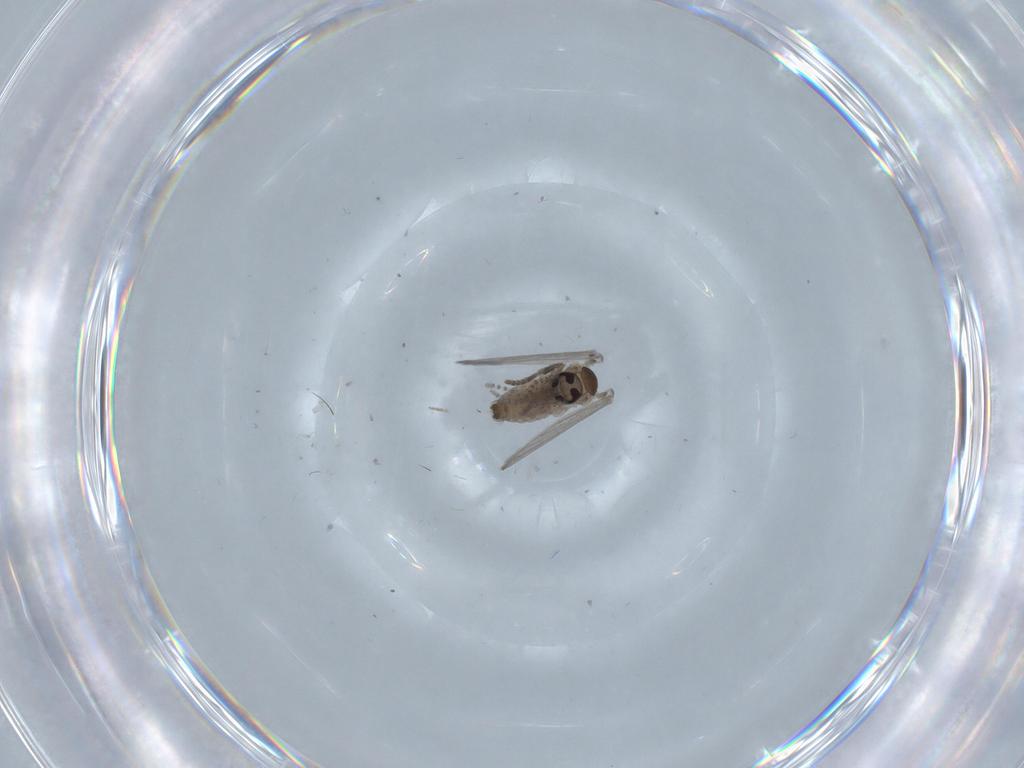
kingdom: Animalia
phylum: Arthropoda
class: Insecta
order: Diptera
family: Psychodidae
